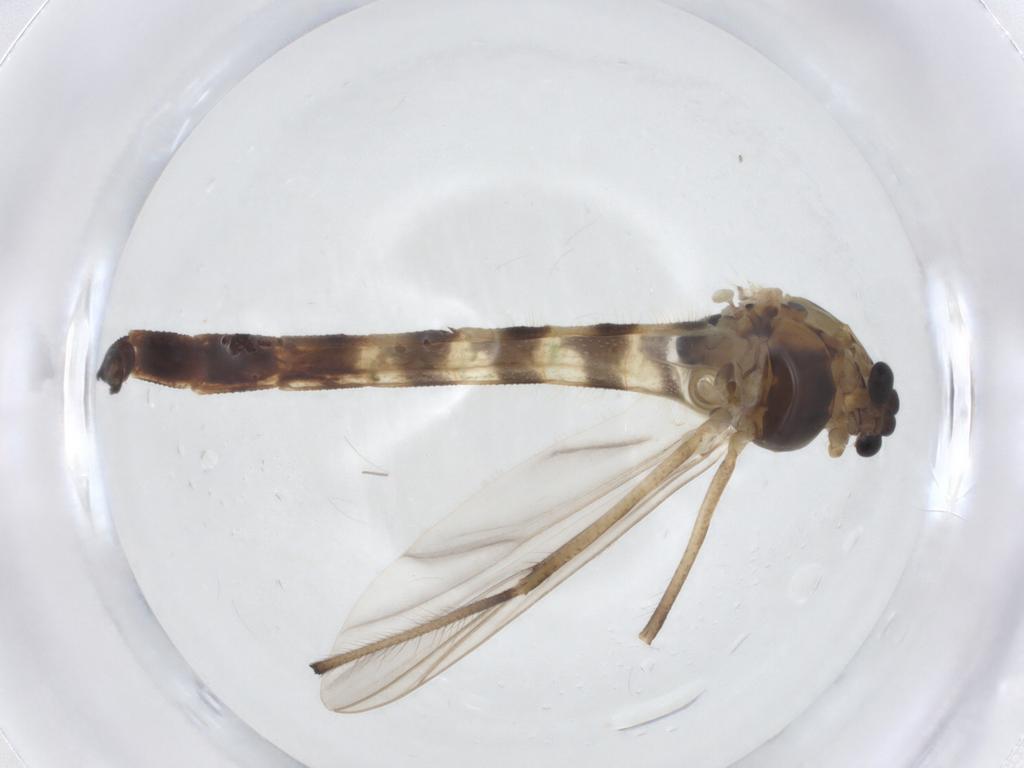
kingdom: Animalia
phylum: Arthropoda
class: Insecta
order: Diptera
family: Chironomidae
